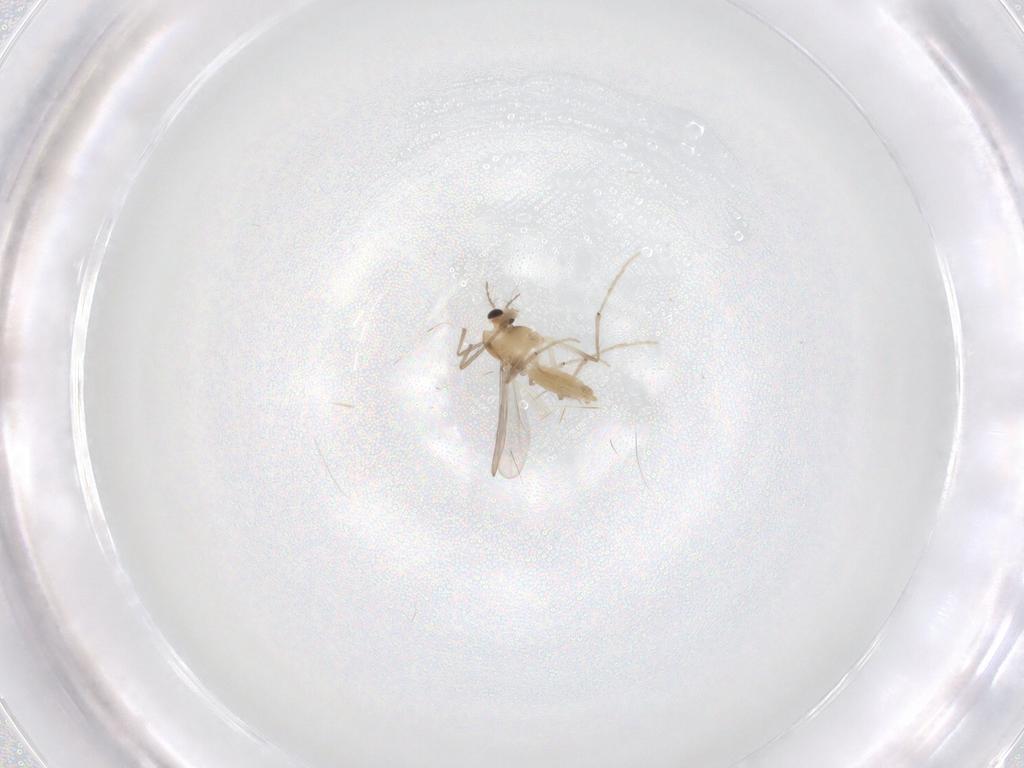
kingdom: Animalia
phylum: Arthropoda
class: Insecta
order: Diptera
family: Chironomidae
